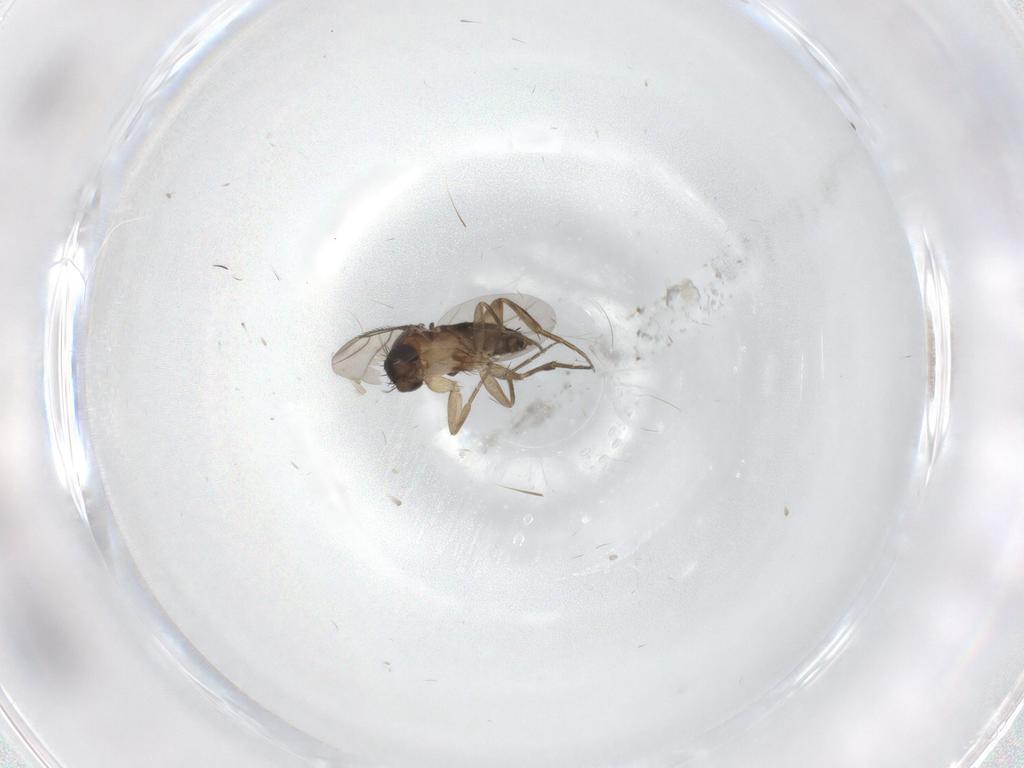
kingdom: Animalia
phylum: Arthropoda
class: Insecta
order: Diptera
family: Phoridae
